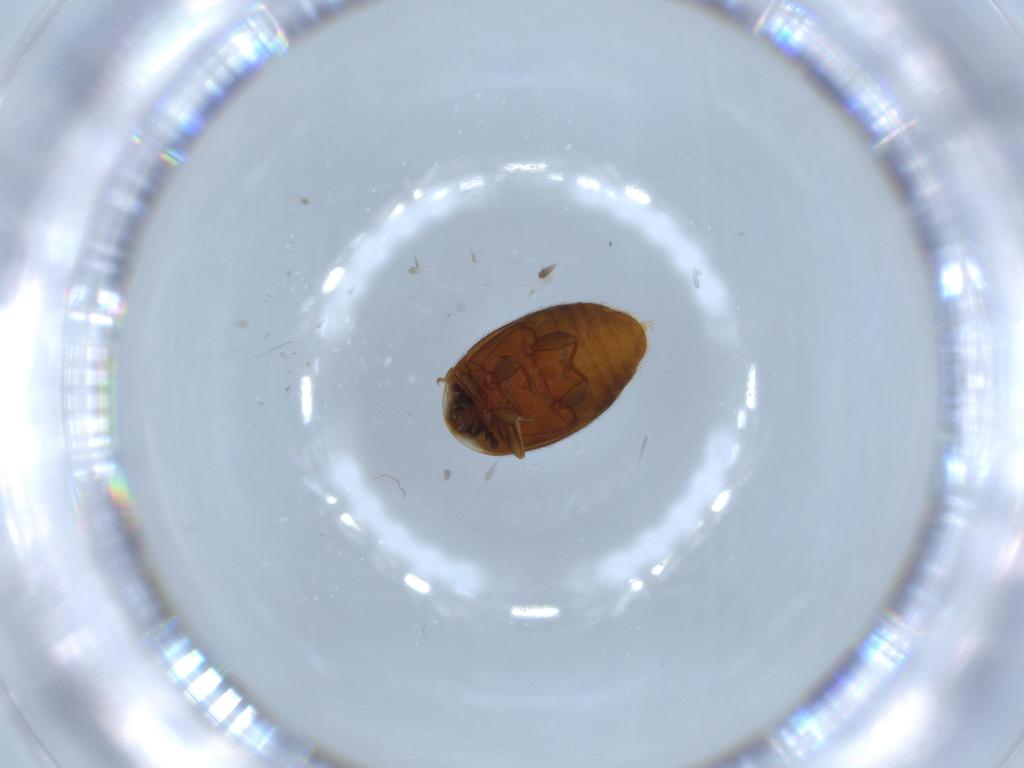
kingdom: Animalia
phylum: Arthropoda
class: Insecta
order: Coleoptera
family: Corylophidae
